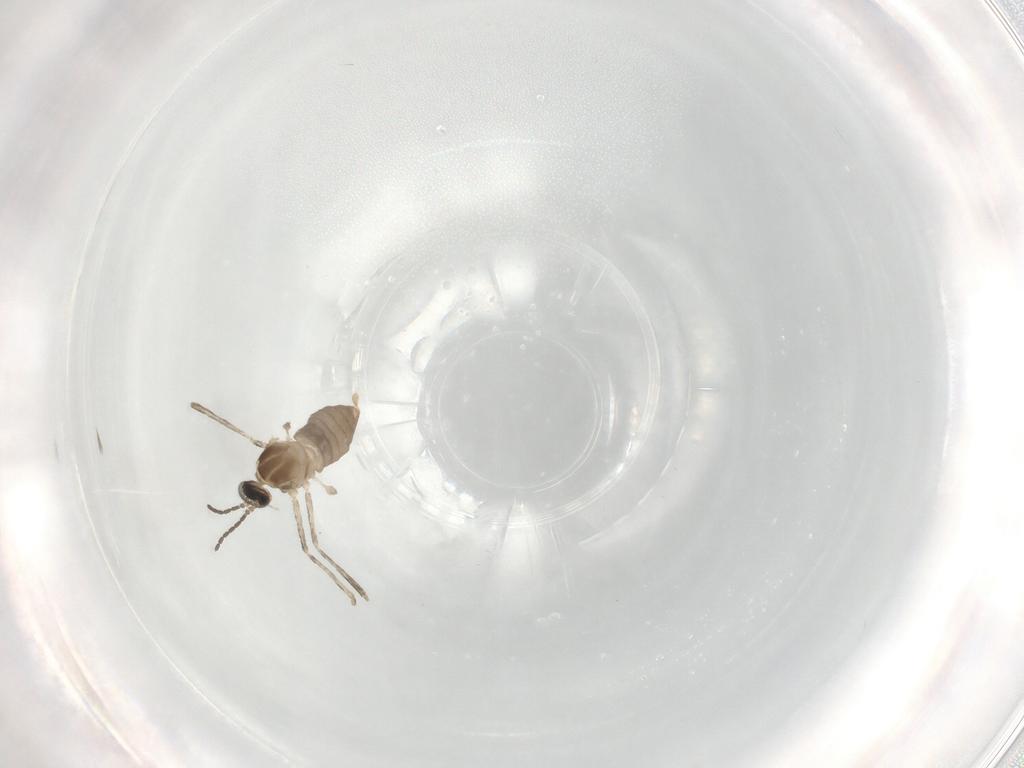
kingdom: Animalia
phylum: Arthropoda
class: Insecta
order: Diptera
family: Cecidomyiidae
